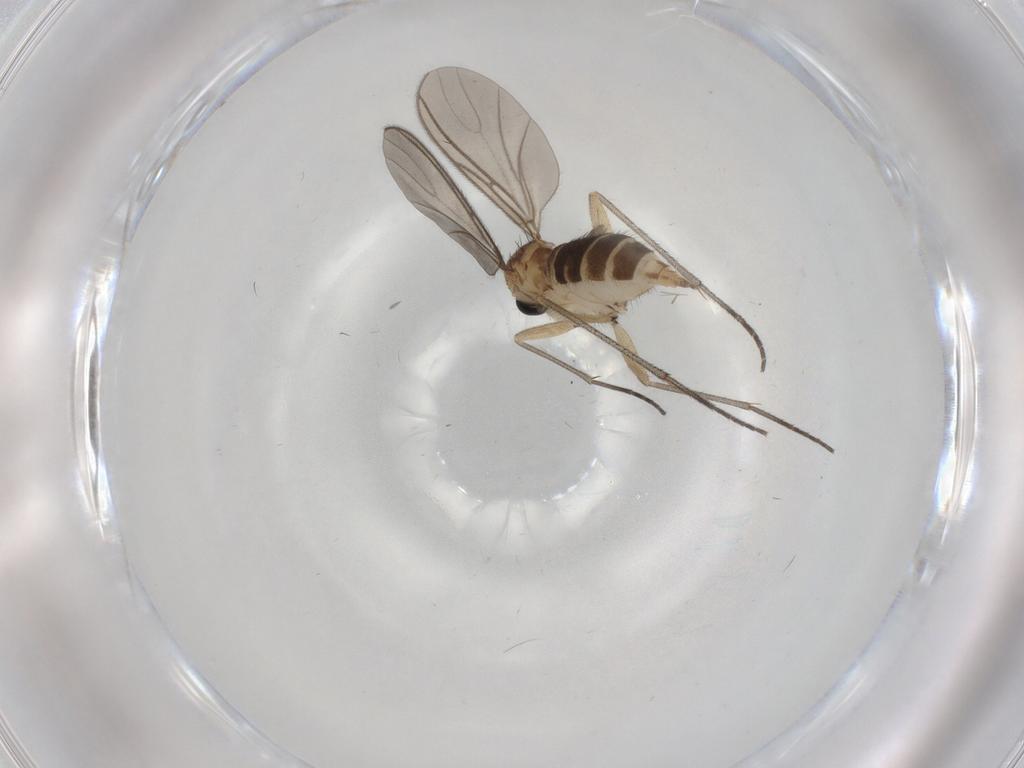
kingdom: Animalia
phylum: Arthropoda
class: Insecta
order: Diptera
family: Sciaridae
